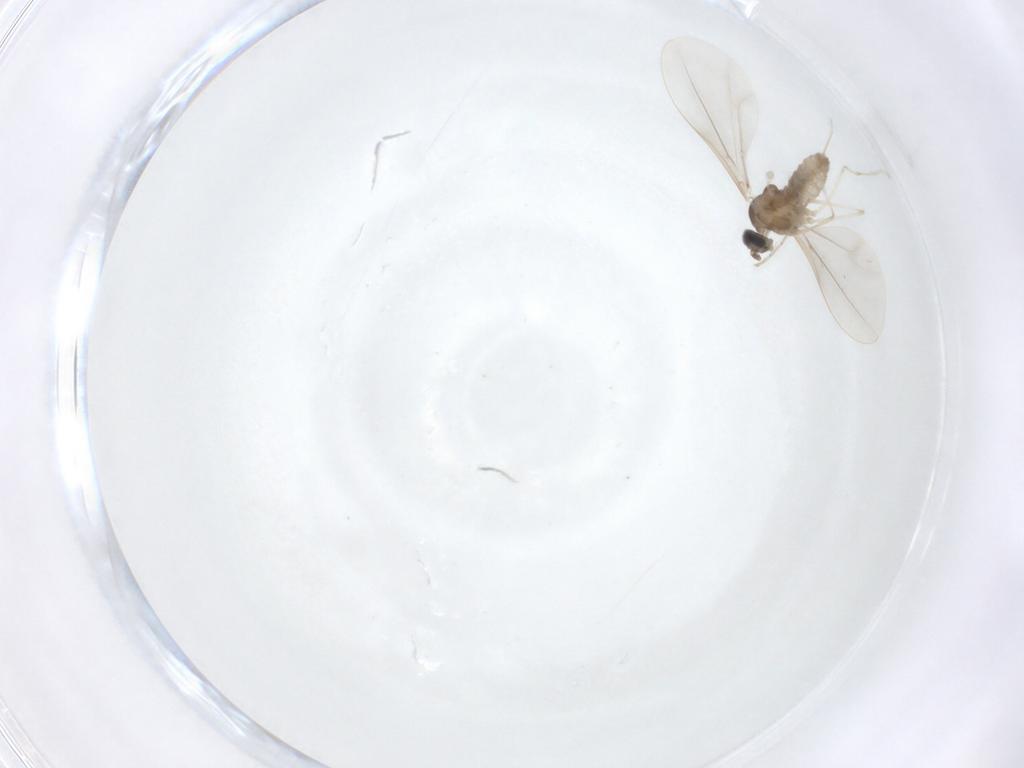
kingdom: Animalia
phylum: Arthropoda
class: Insecta
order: Diptera
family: Cecidomyiidae
